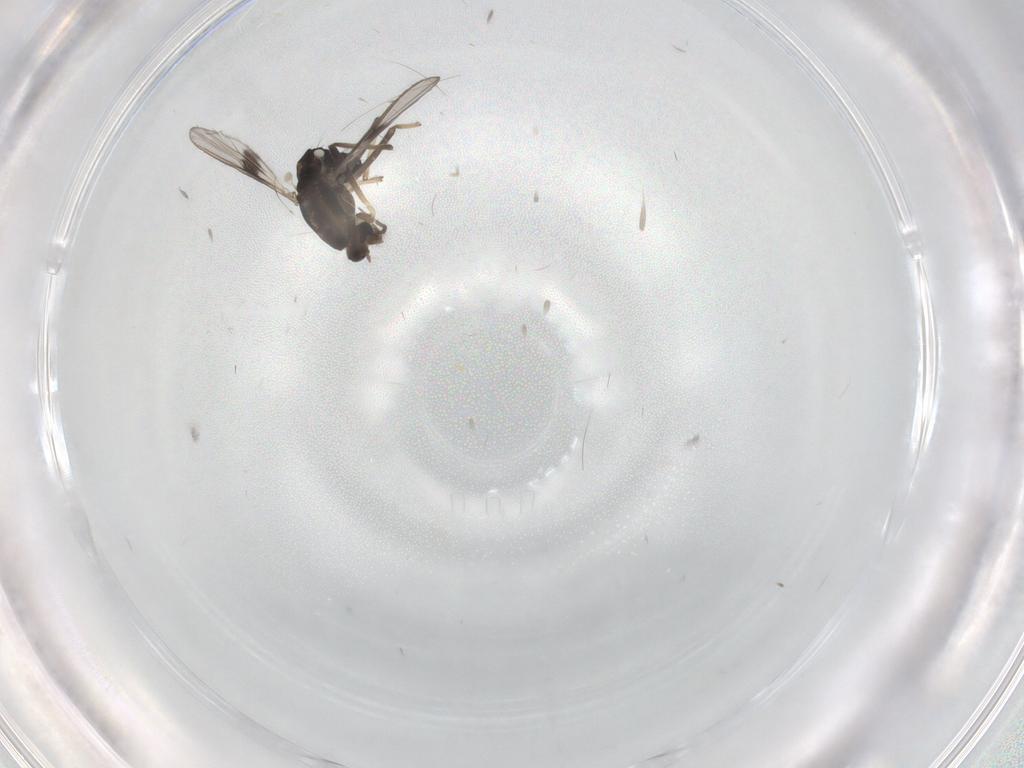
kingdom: Animalia
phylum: Arthropoda
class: Insecta
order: Diptera
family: Chironomidae
